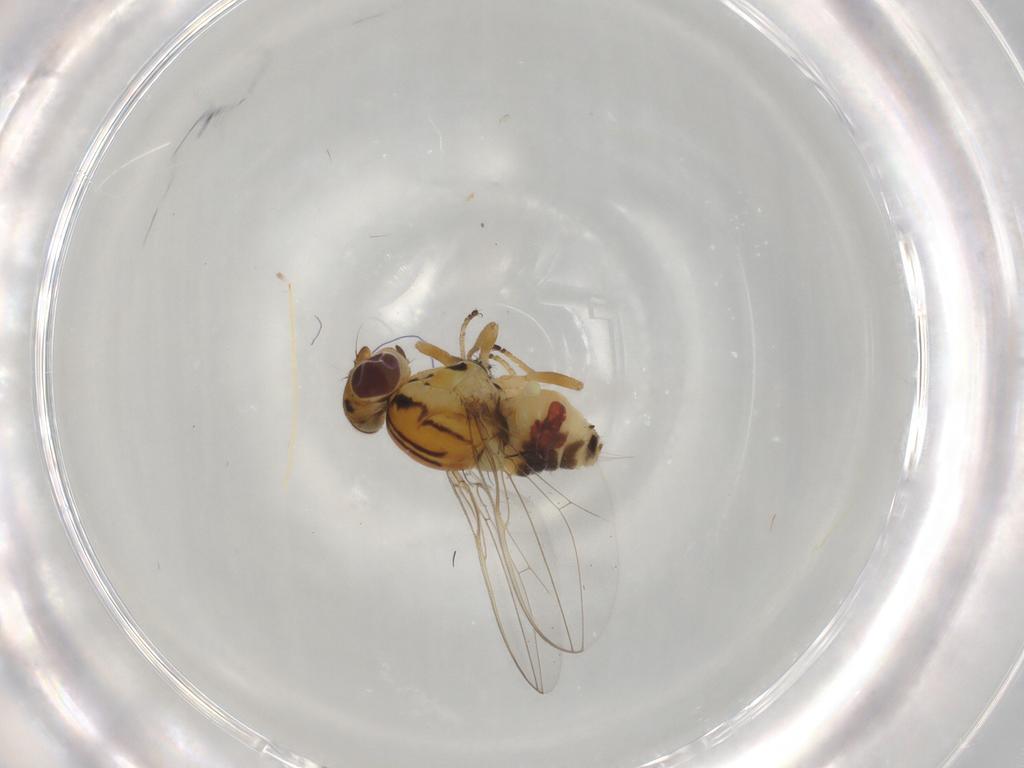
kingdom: Animalia
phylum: Arthropoda
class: Insecta
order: Diptera
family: Asteiidae
